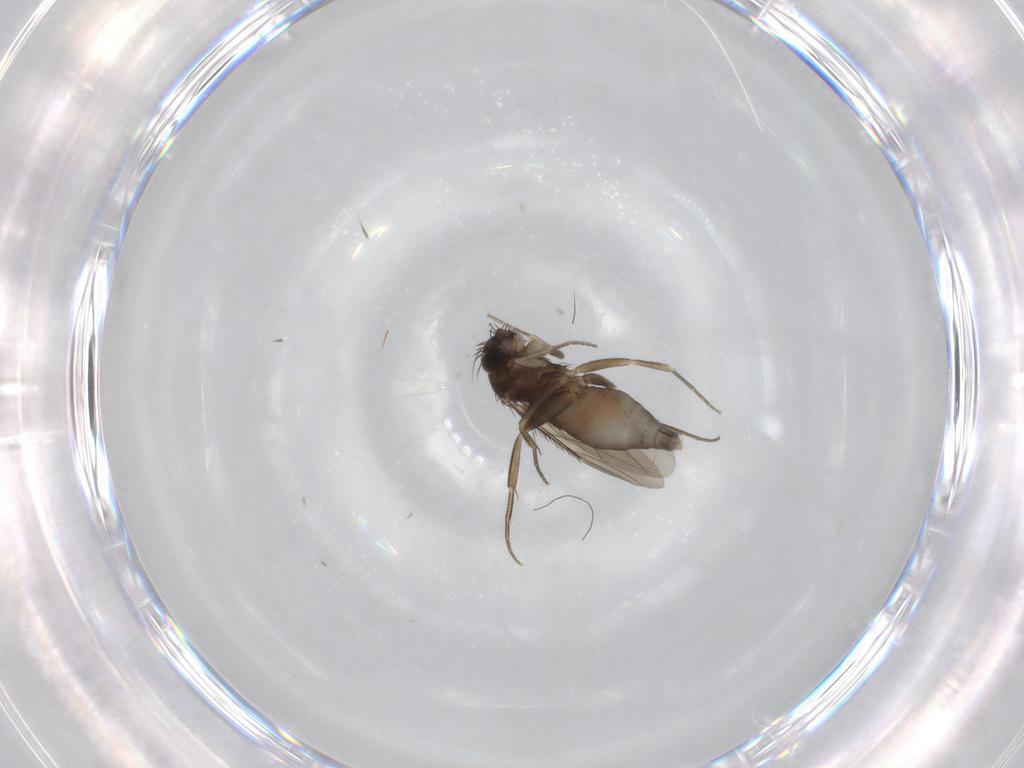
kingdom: Animalia
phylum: Arthropoda
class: Insecta
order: Diptera
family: Phoridae
